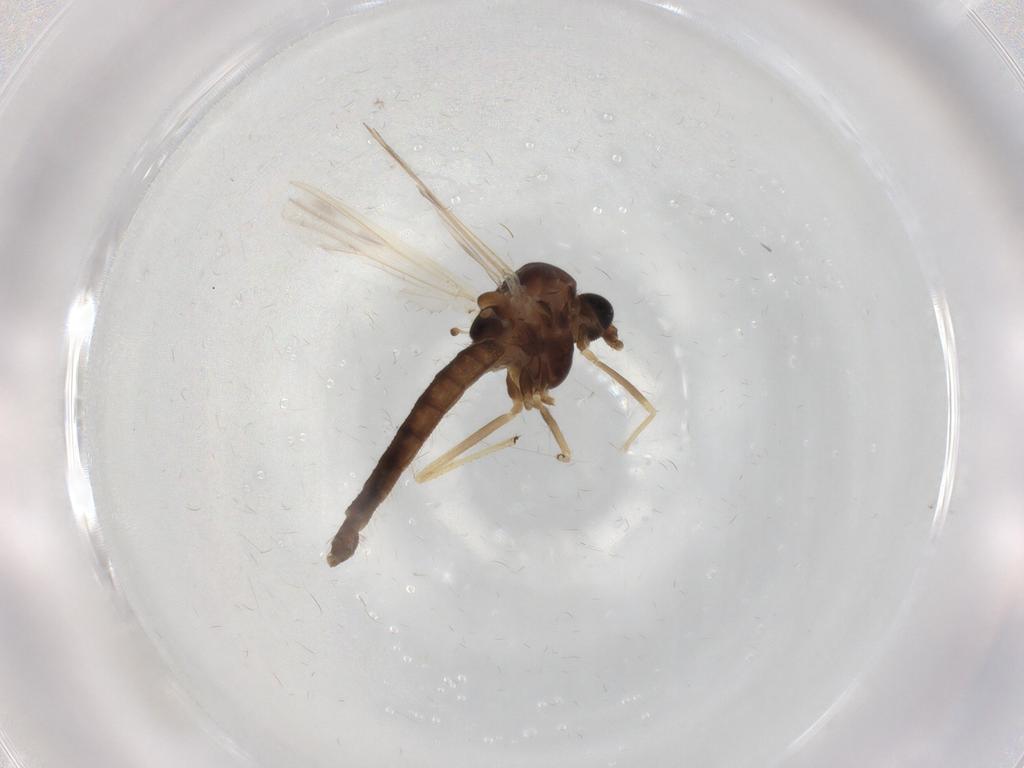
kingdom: Animalia
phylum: Arthropoda
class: Insecta
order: Diptera
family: Chironomidae
